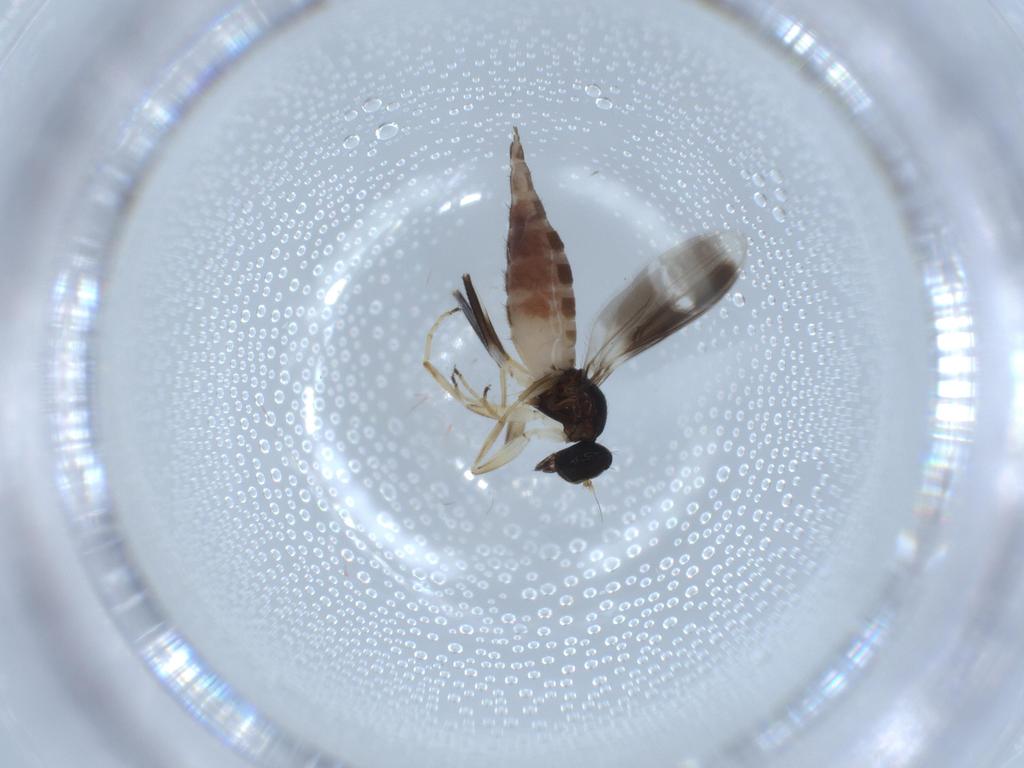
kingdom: Animalia
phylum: Arthropoda
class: Insecta
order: Diptera
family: Hybotidae
